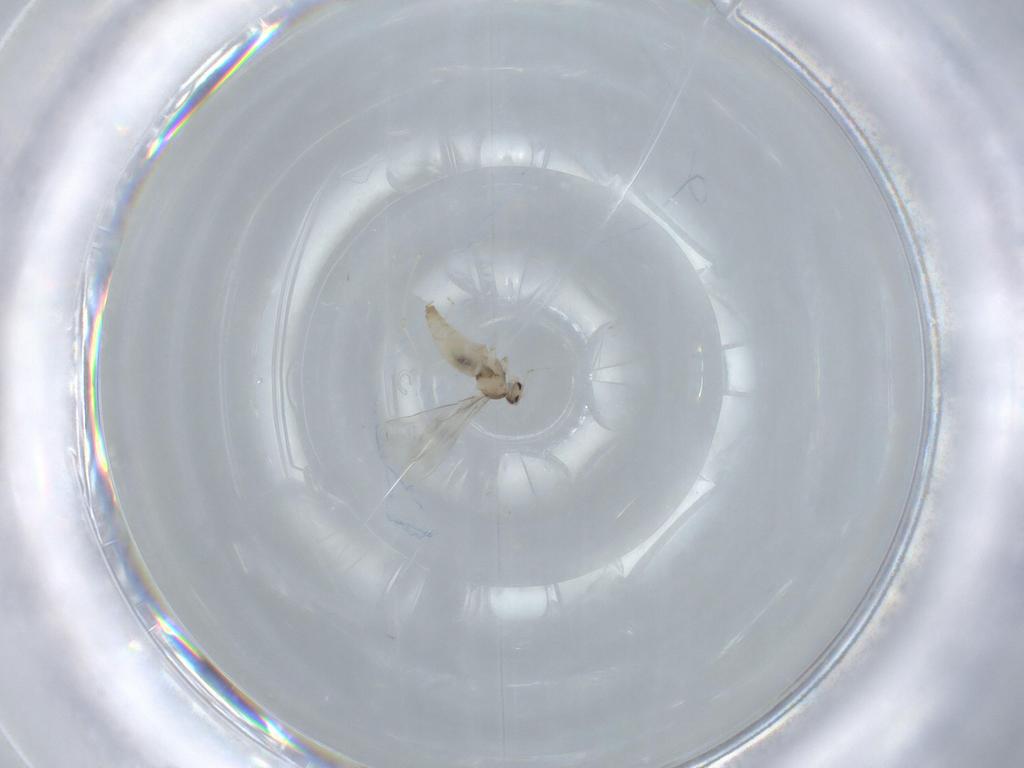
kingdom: Animalia
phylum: Arthropoda
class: Insecta
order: Diptera
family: Cecidomyiidae
